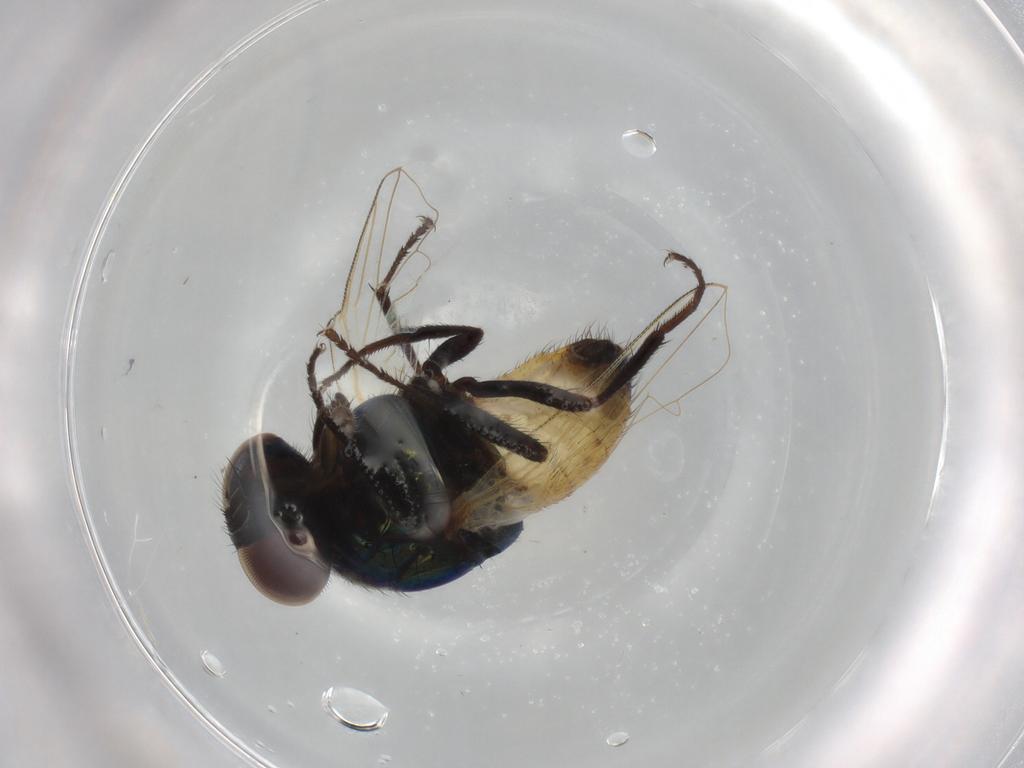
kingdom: Animalia
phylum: Arthropoda
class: Insecta
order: Diptera
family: Muscidae
